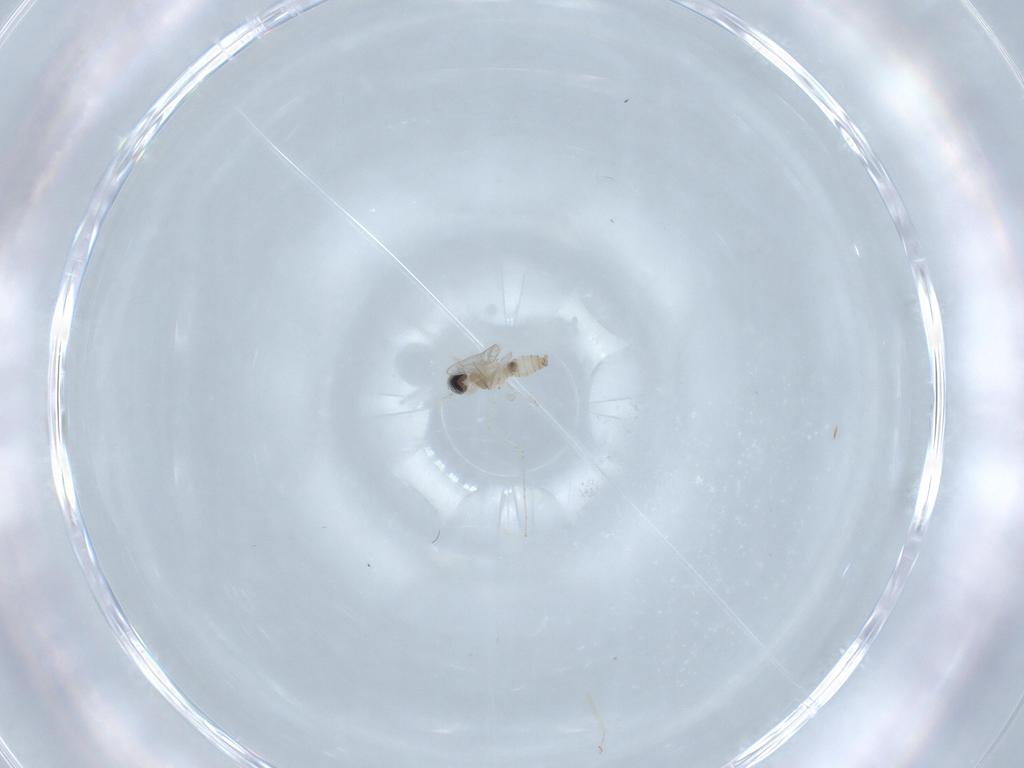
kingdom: Animalia
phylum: Arthropoda
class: Insecta
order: Diptera
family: Cecidomyiidae
